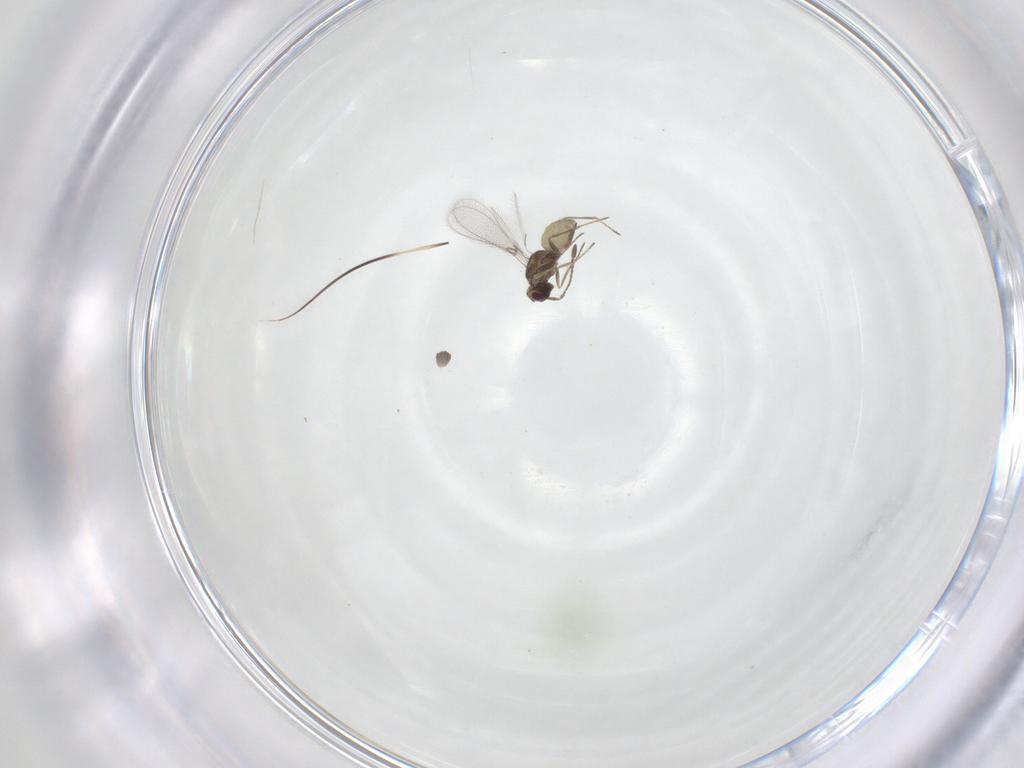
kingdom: Animalia
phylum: Arthropoda
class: Insecta
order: Hymenoptera
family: Mymaridae
